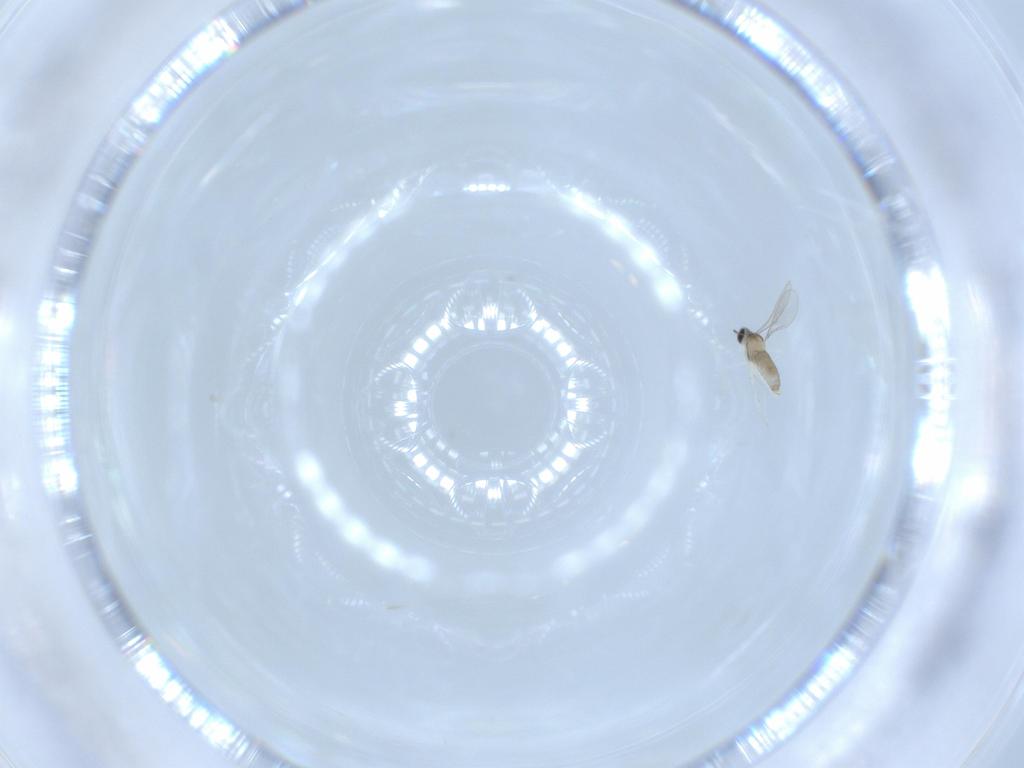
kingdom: Animalia
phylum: Arthropoda
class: Insecta
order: Diptera
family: Calliphoridae
